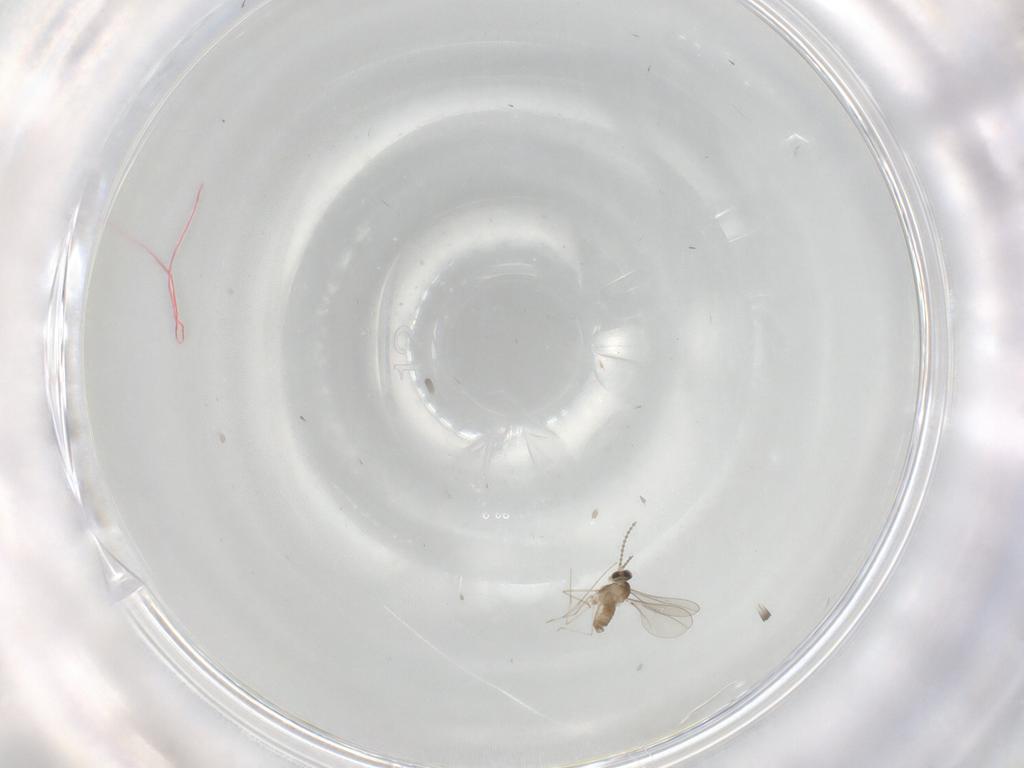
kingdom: Animalia
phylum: Arthropoda
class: Insecta
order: Diptera
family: Cecidomyiidae
